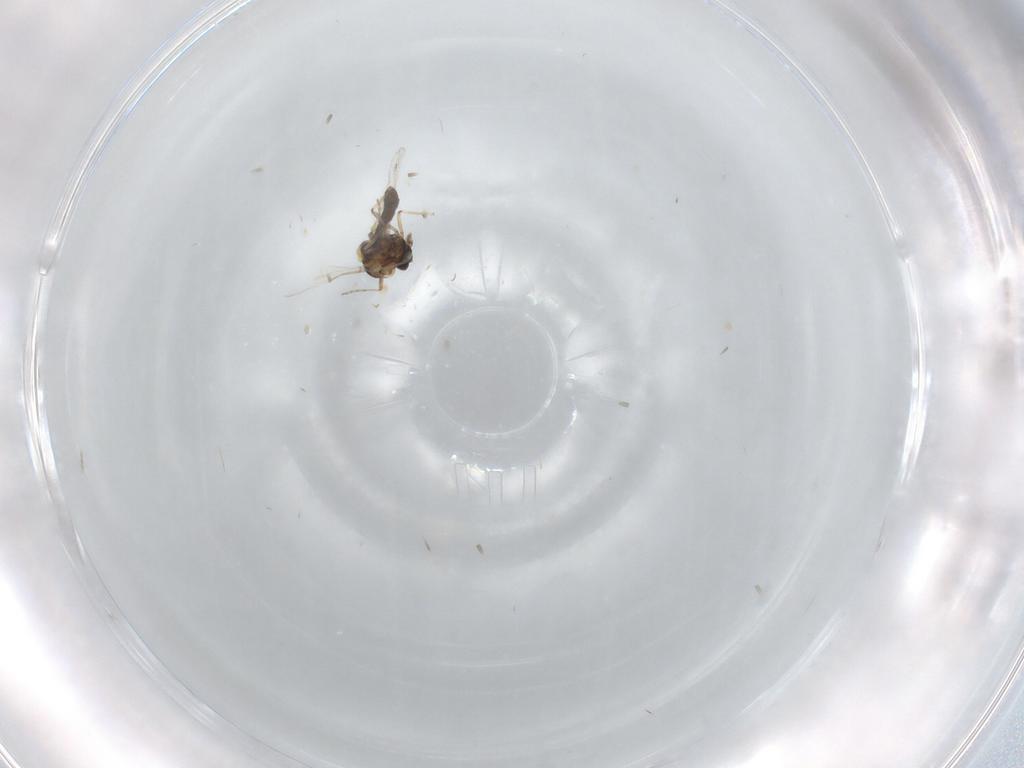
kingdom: Animalia
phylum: Arthropoda
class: Insecta
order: Diptera
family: Ceratopogonidae
